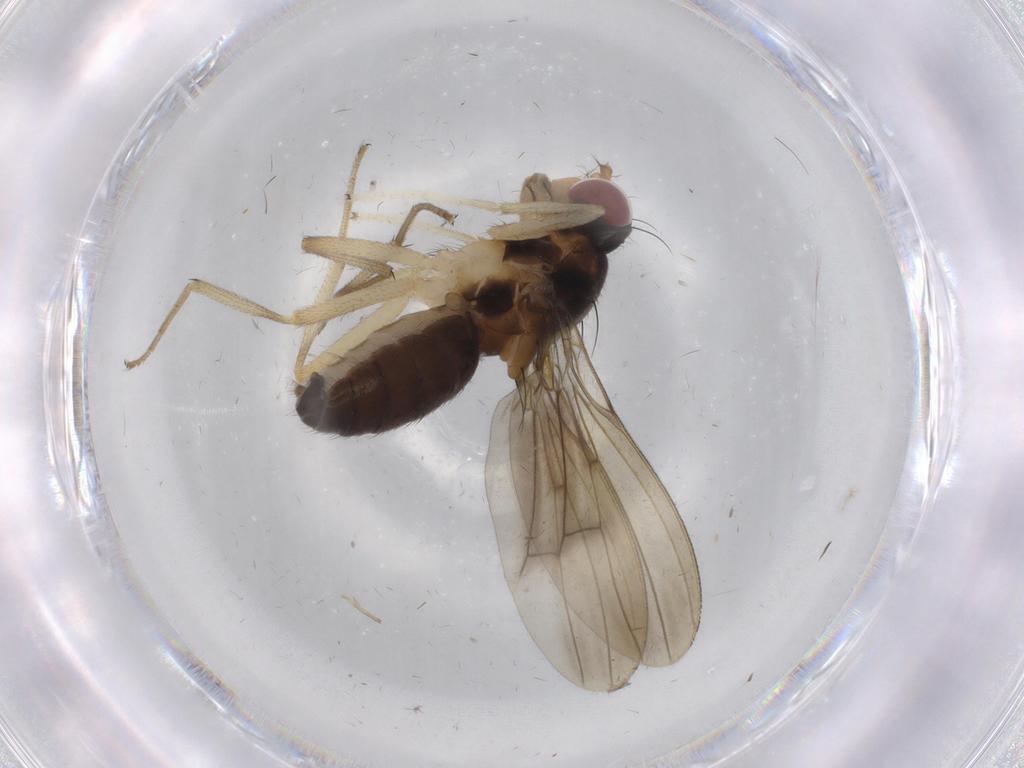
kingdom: Animalia
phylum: Arthropoda
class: Insecta
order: Diptera
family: Lauxaniidae
